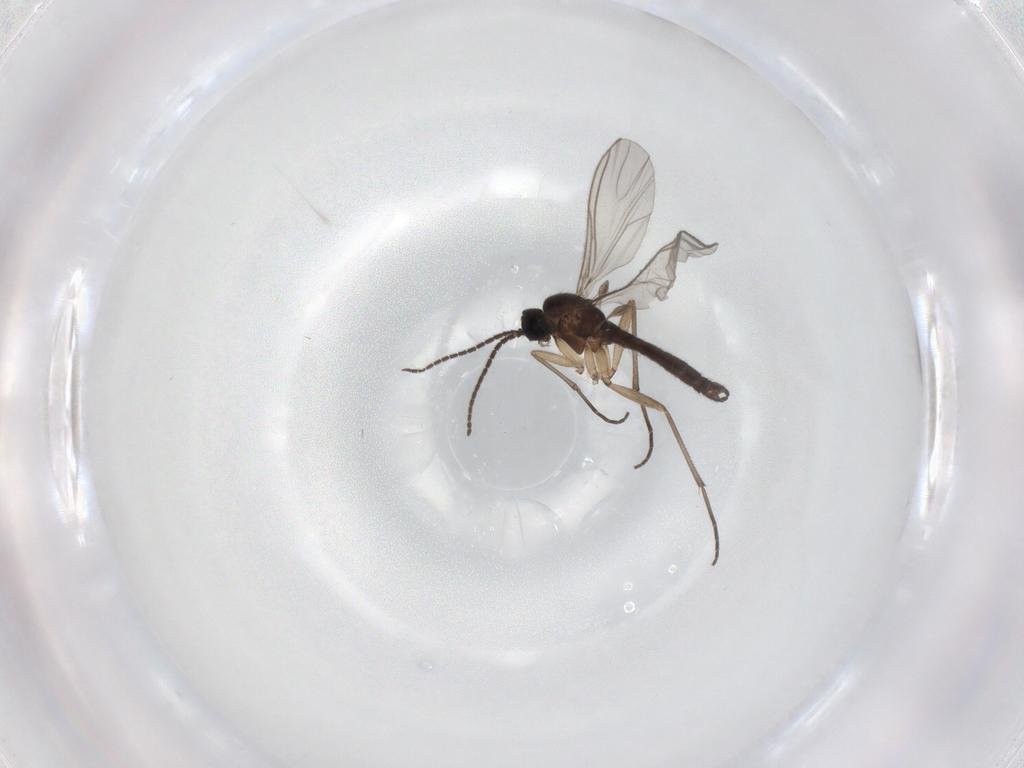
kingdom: Animalia
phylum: Arthropoda
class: Insecta
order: Diptera
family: Sciaridae
